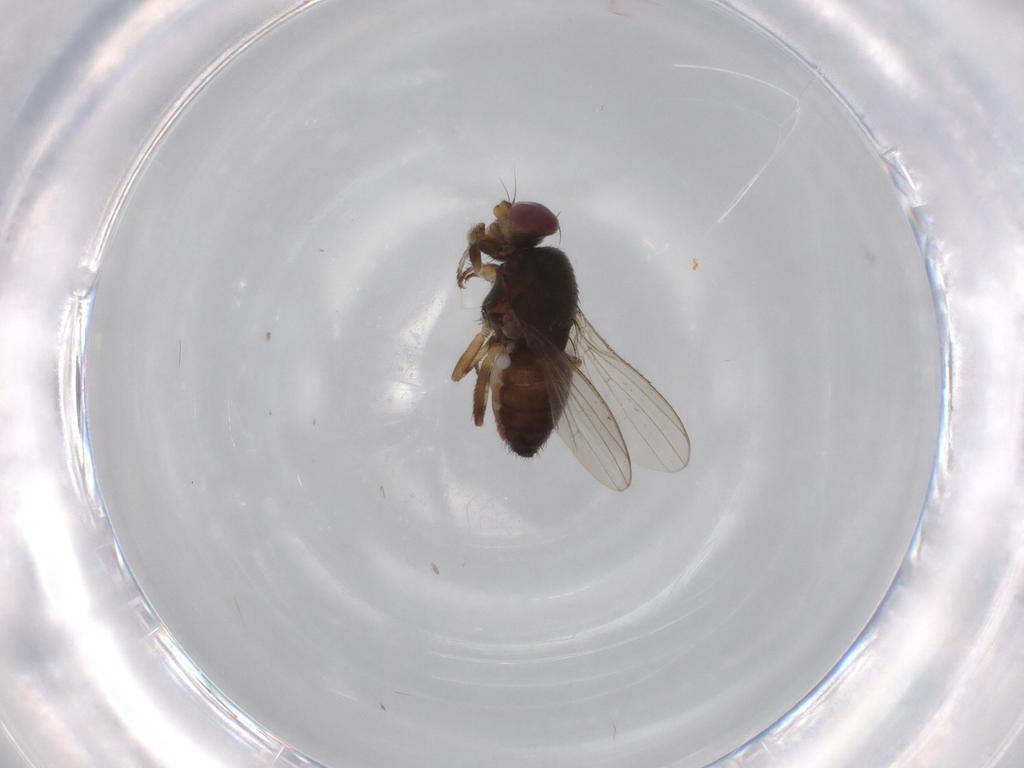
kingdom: Animalia
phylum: Arthropoda
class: Insecta
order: Diptera
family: Heleomyzidae
